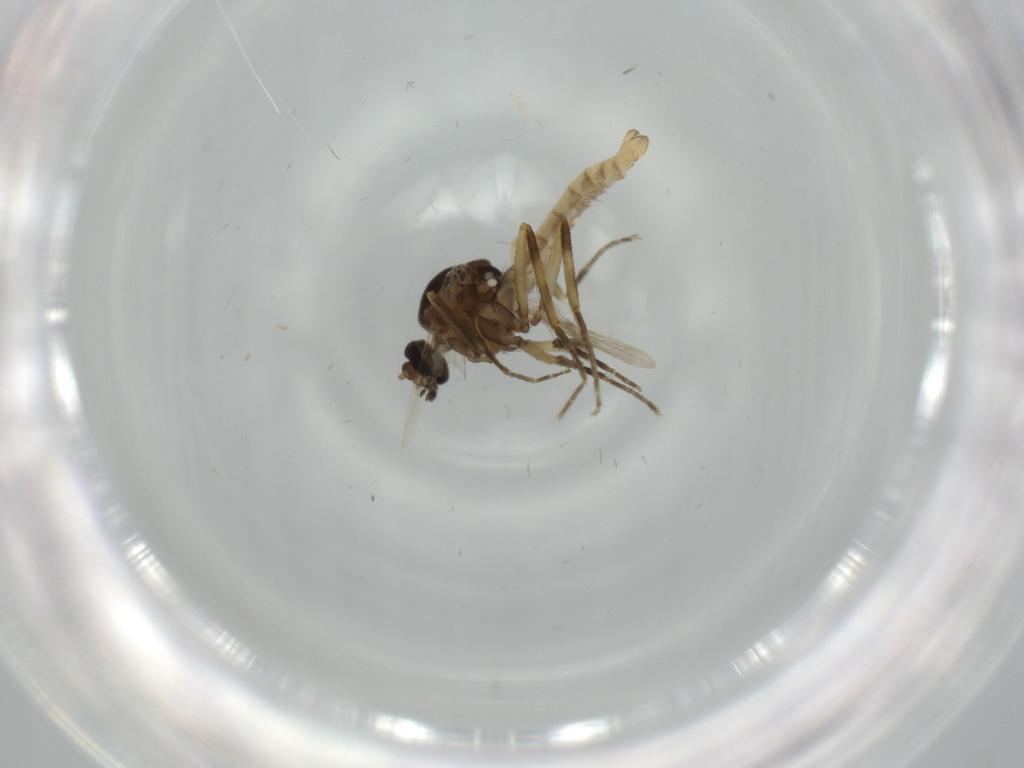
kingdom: Animalia
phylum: Arthropoda
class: Insecta
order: Diptera
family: Ceratopogonidae
